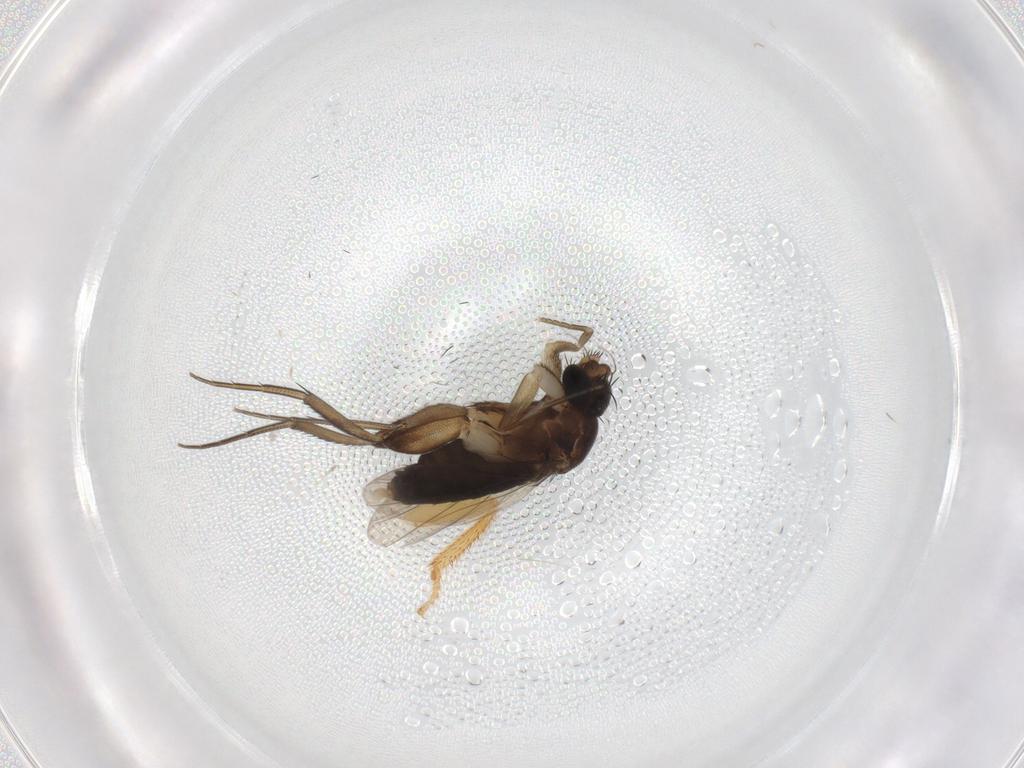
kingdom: Animalia
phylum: Arthropoda
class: Insecta
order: Diptera
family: Phoridae
